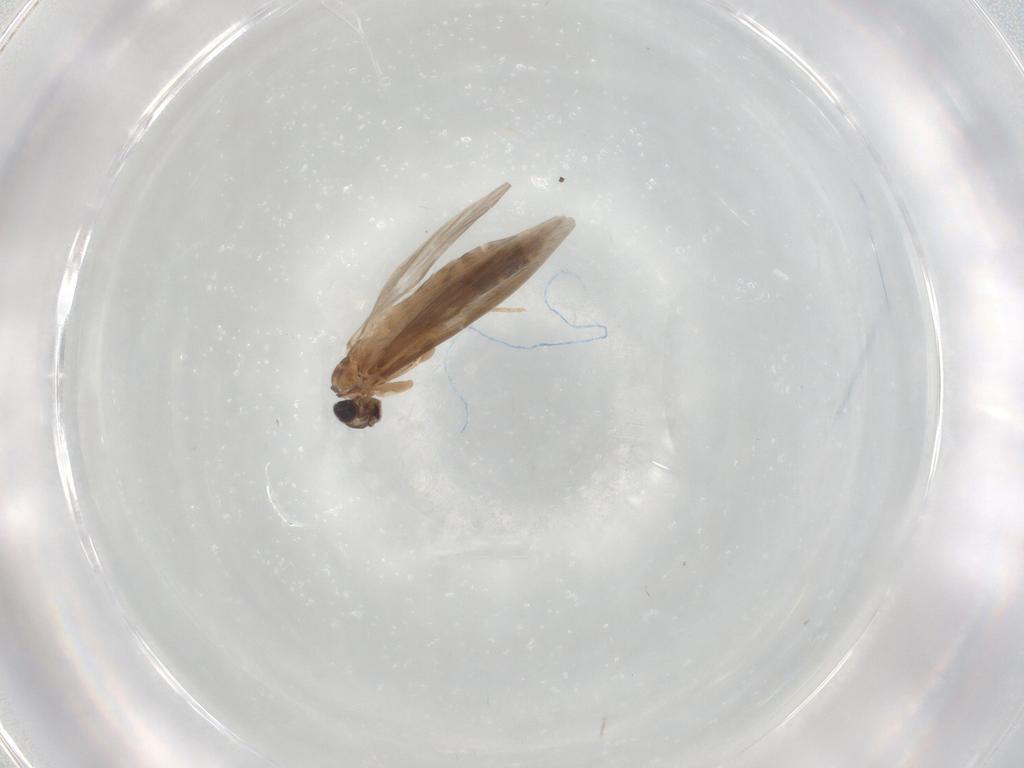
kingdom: Animalia
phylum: Arthropoda
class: Insecta
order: Trichoptera
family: Hydroptilidae
